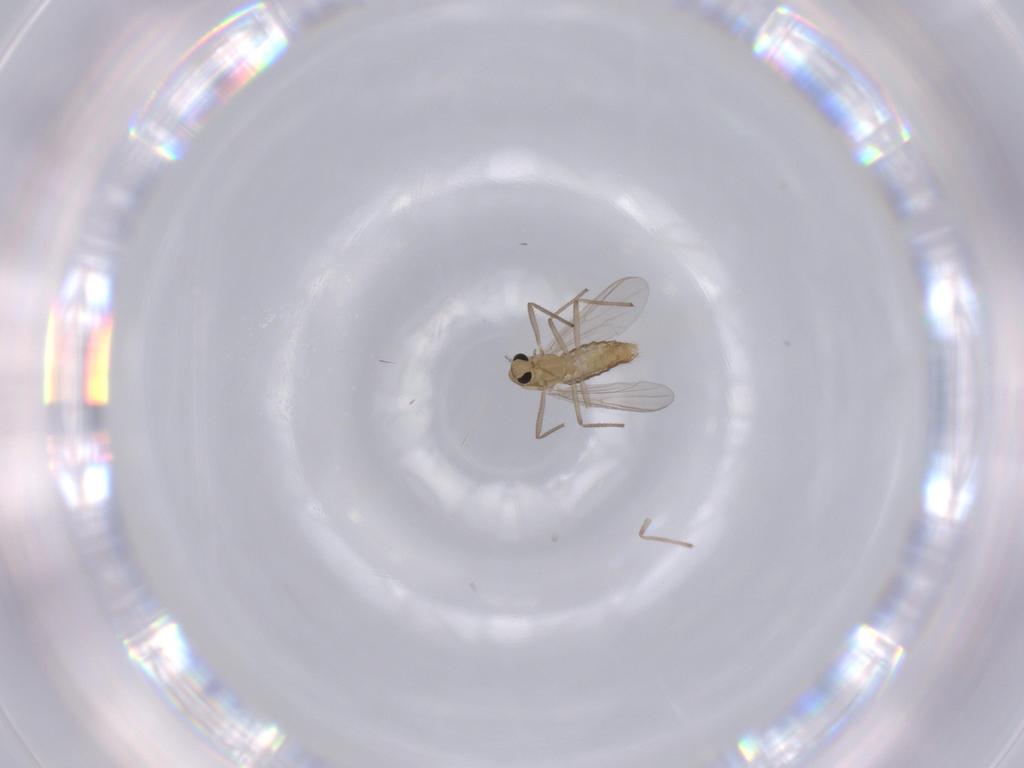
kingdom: Animalia
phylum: Arthropoda
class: Insecta
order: Diptera
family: Chironomidae
